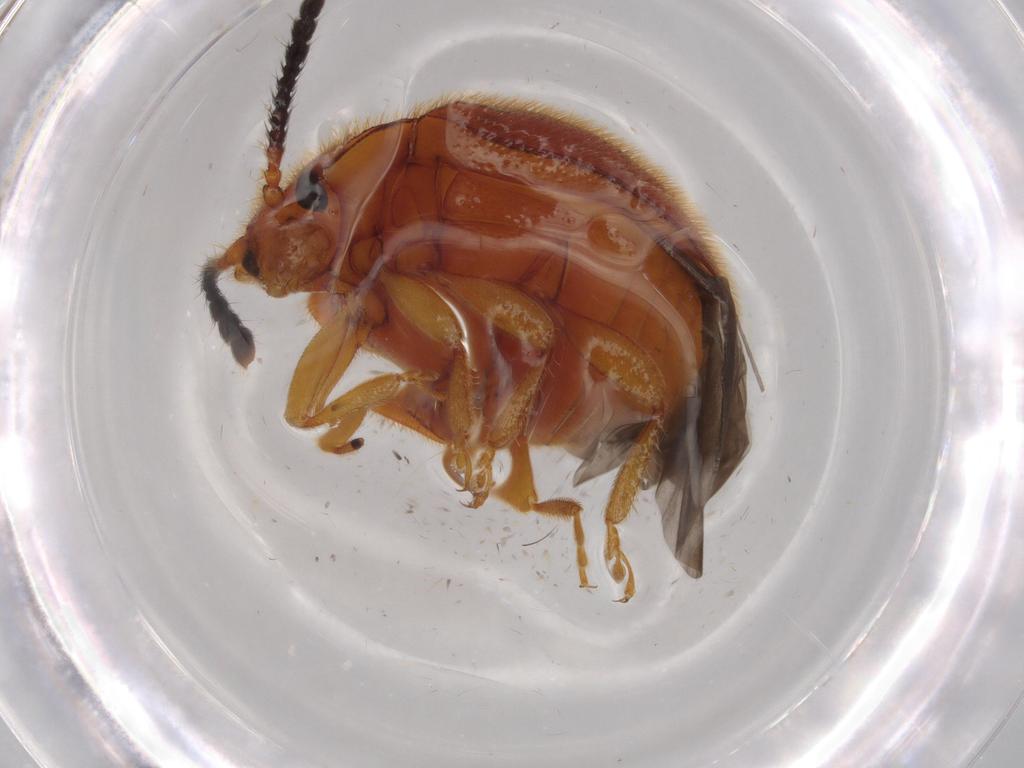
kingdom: Animalia
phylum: Arthropoda
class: Insecta
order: Coleoptera
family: Endomychidae
